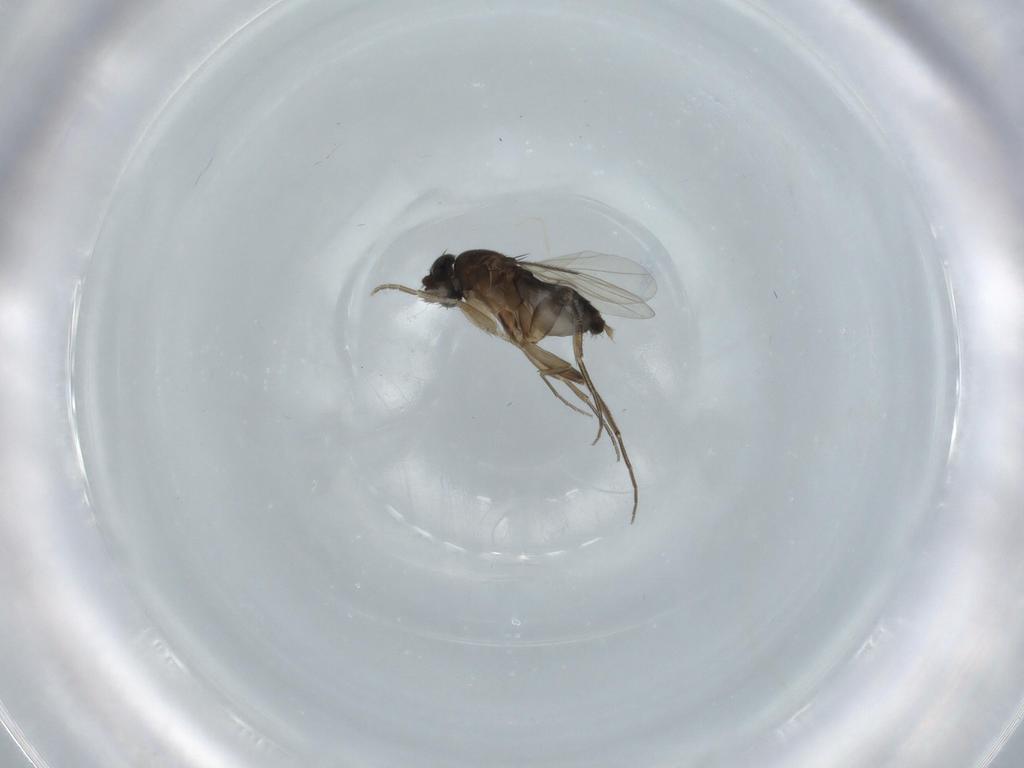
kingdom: Animalia
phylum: Arthropoda
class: Insecta
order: Diptera
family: Phoridae
